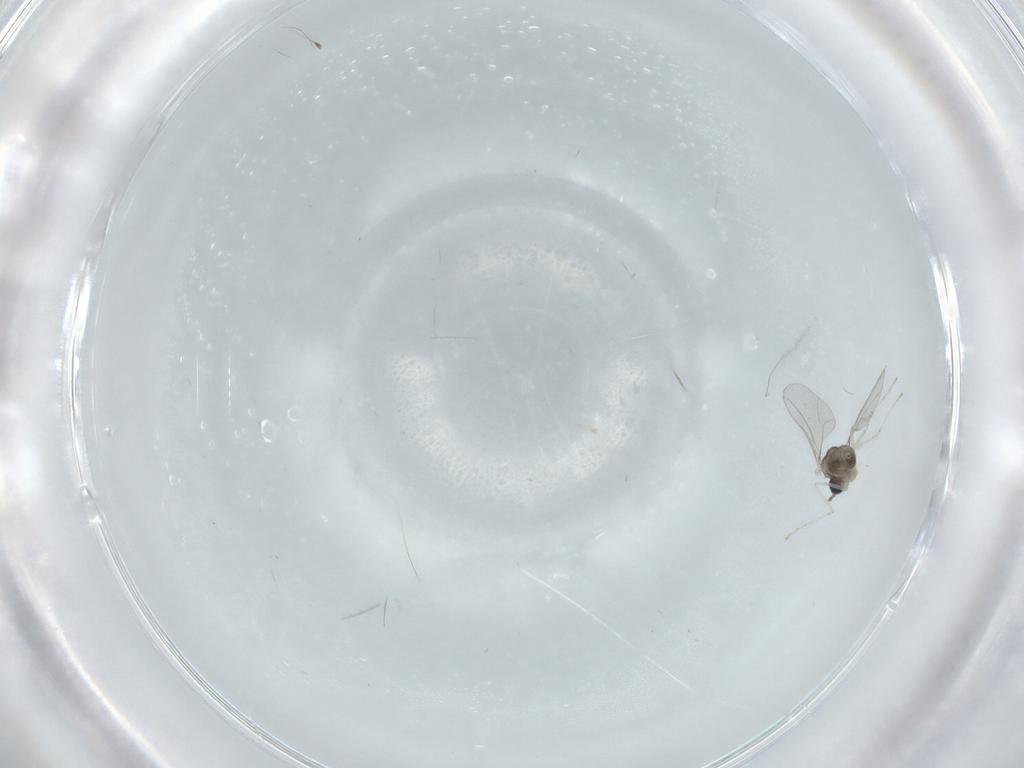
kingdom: Animalia
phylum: Arthropoda
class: Insecta
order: Diptera
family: Cecidomyiidae
